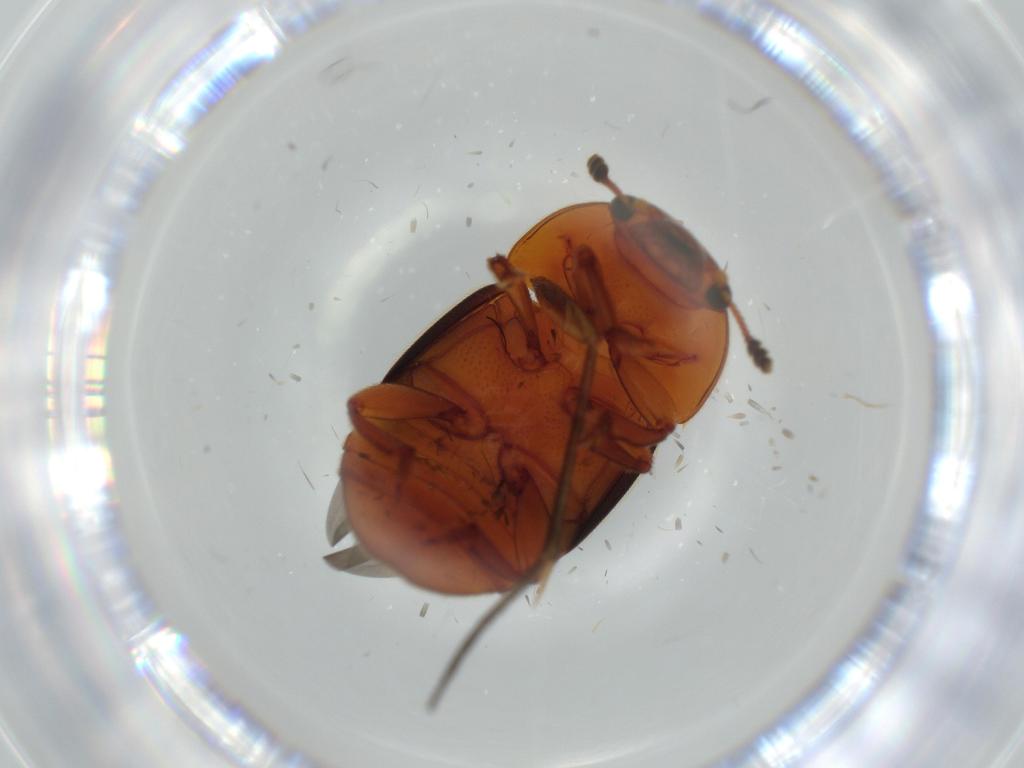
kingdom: Animalia
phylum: Arthropoda
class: Insecta
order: Coleoptera
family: Nitidulidae
